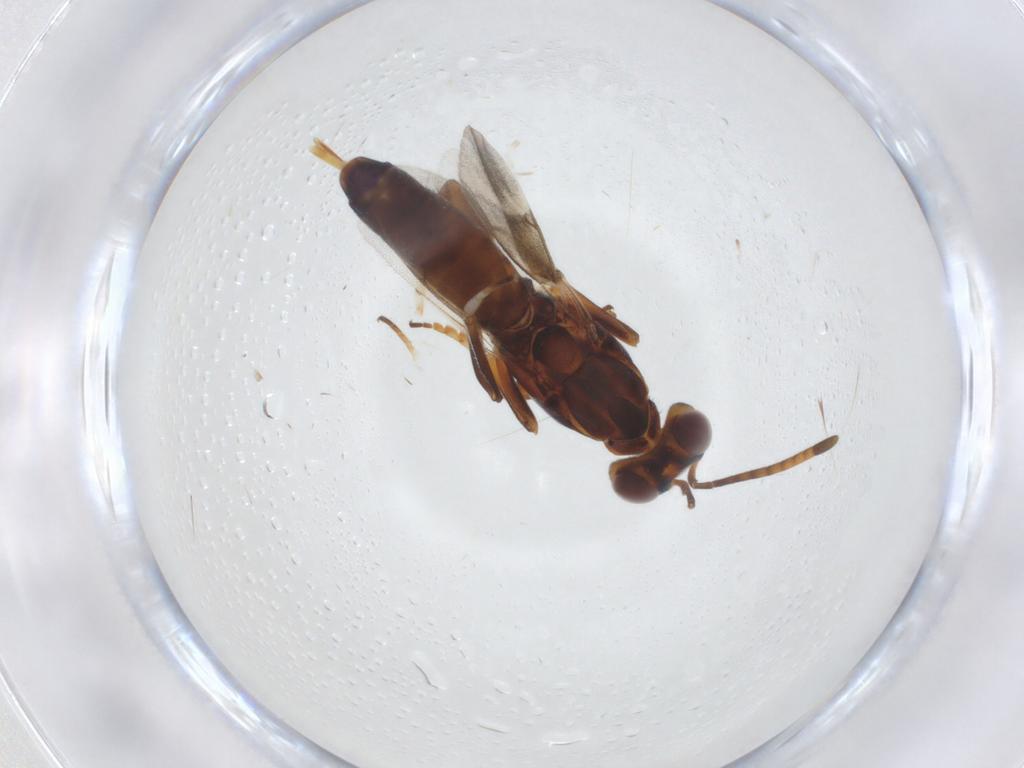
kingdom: Animalia
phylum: Arthropoda
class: Insecta
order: Hymenoptera
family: Eupelmidae
